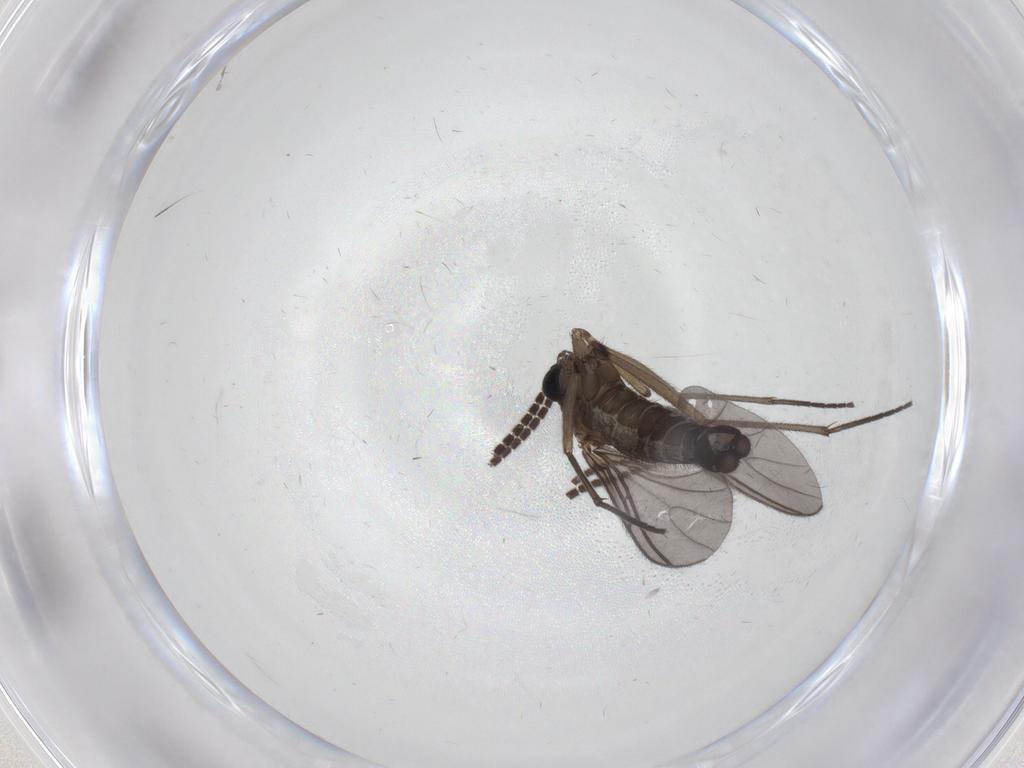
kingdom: Animalia
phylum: Arthropoda
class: Insecta
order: Diptera
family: Sciaridae
